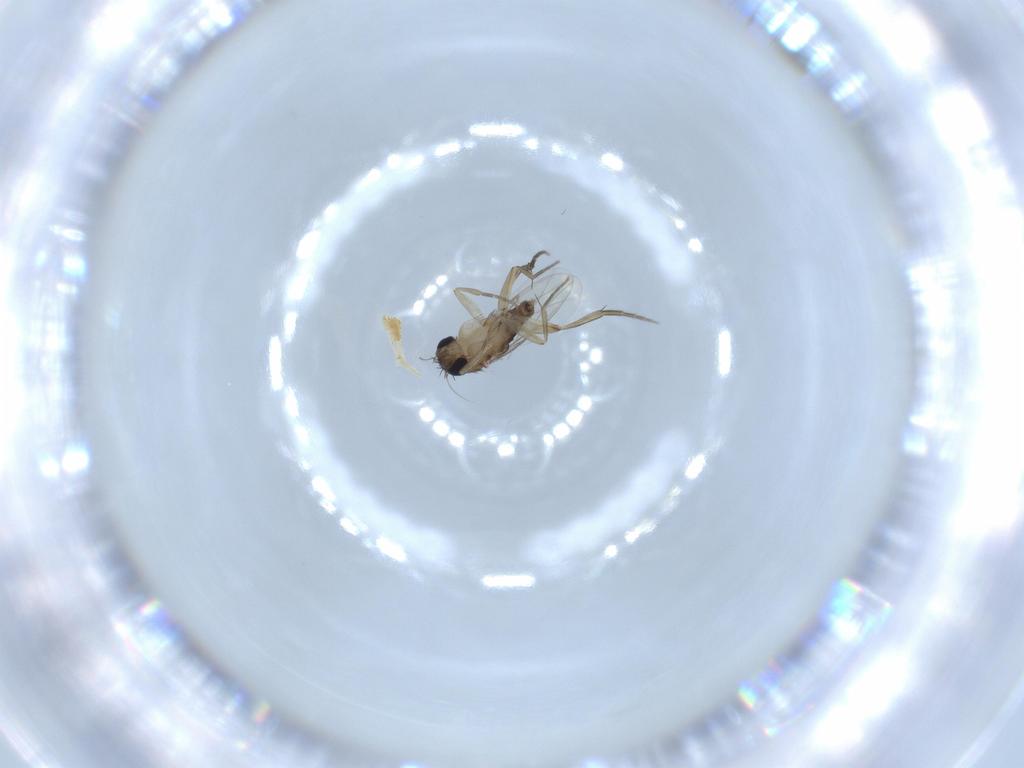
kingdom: Animalia
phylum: Arthropoda
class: Insecta
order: Diptera
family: Phoridae
